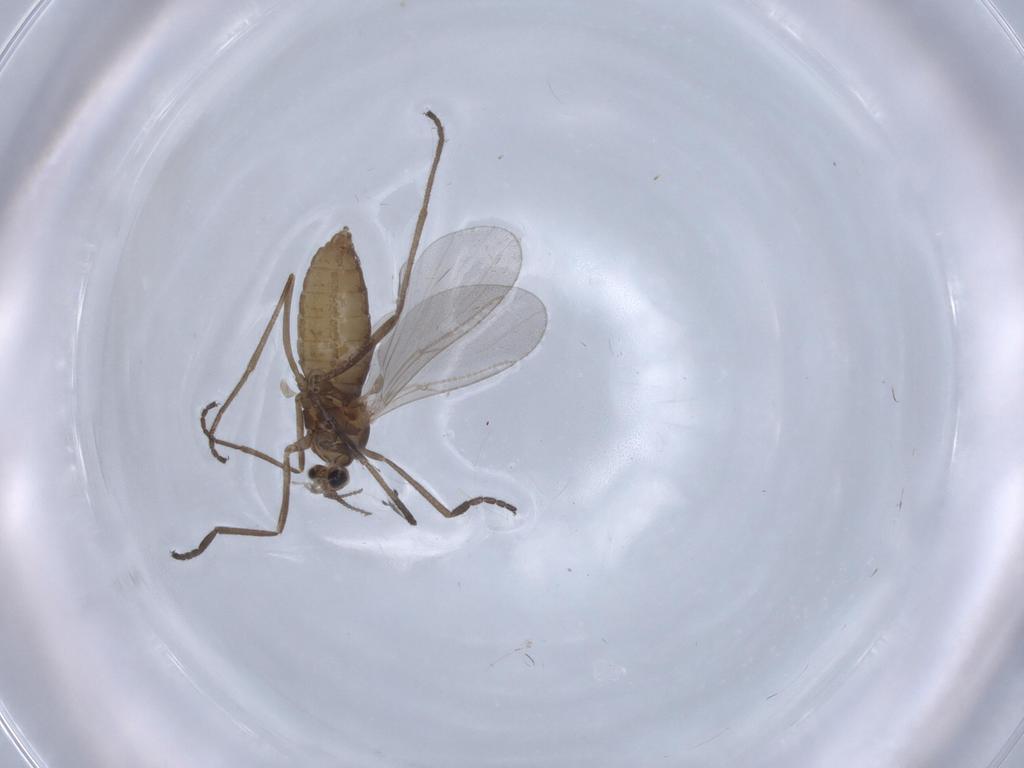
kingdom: Animalia
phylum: Arthropoda
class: Insecta
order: Diptera
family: Cecidomyiidae
